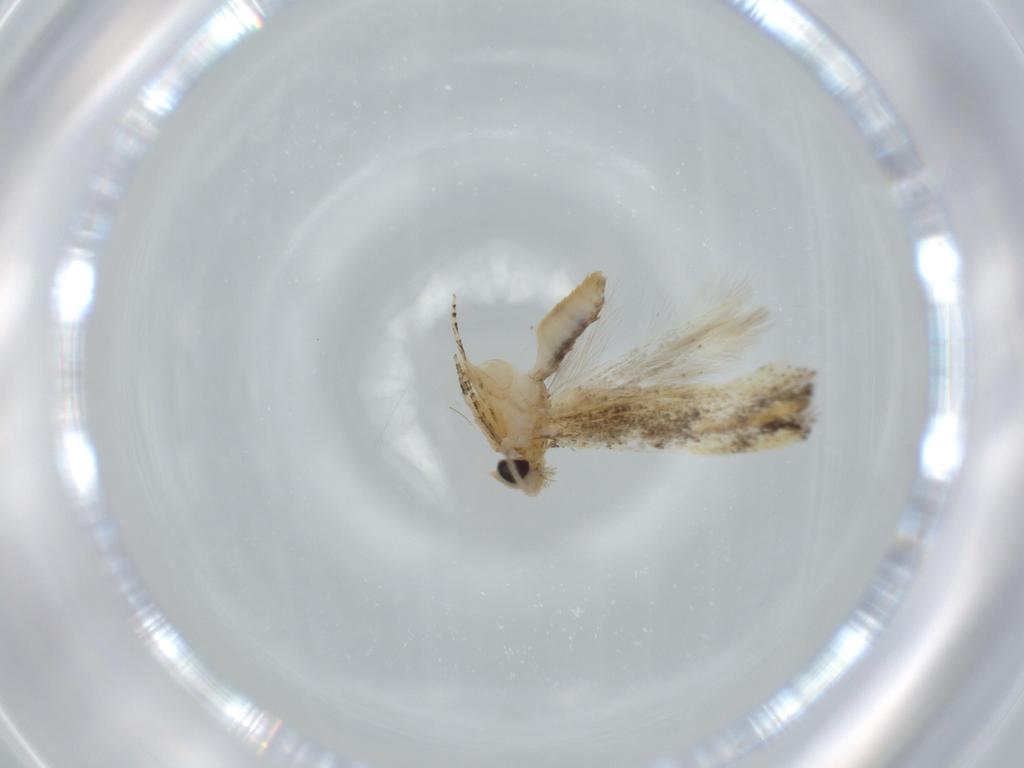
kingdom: Animalia
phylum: Arthropoda
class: Insecta
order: Lepidoptera
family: Bucculatricidae
